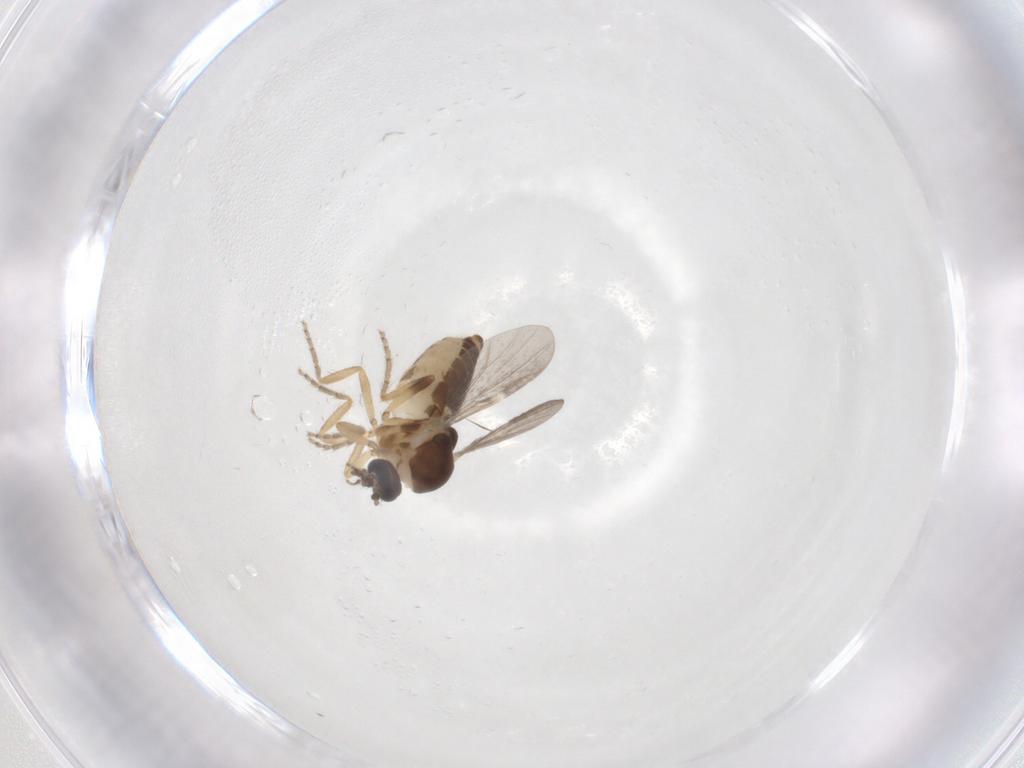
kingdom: Animalia
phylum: Arthropoda
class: Insecta
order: Diptera
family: Ceratopogonidae
